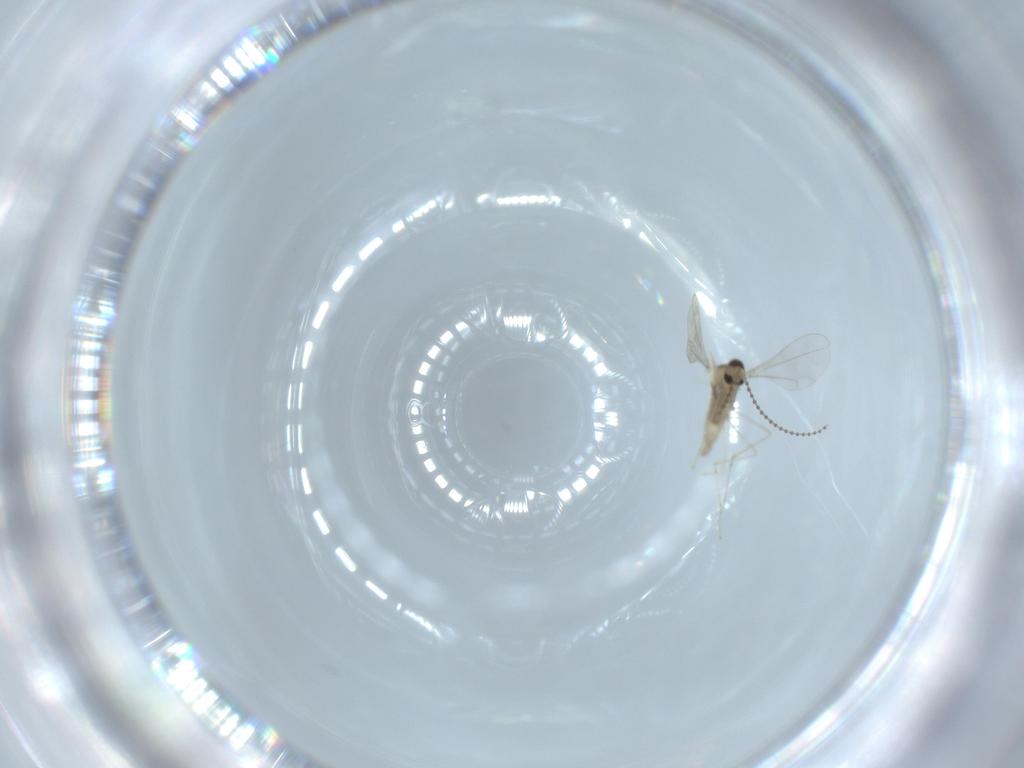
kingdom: Animalia
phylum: Arthropoda
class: Insecta
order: Diptera
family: Cecidomyiidae
